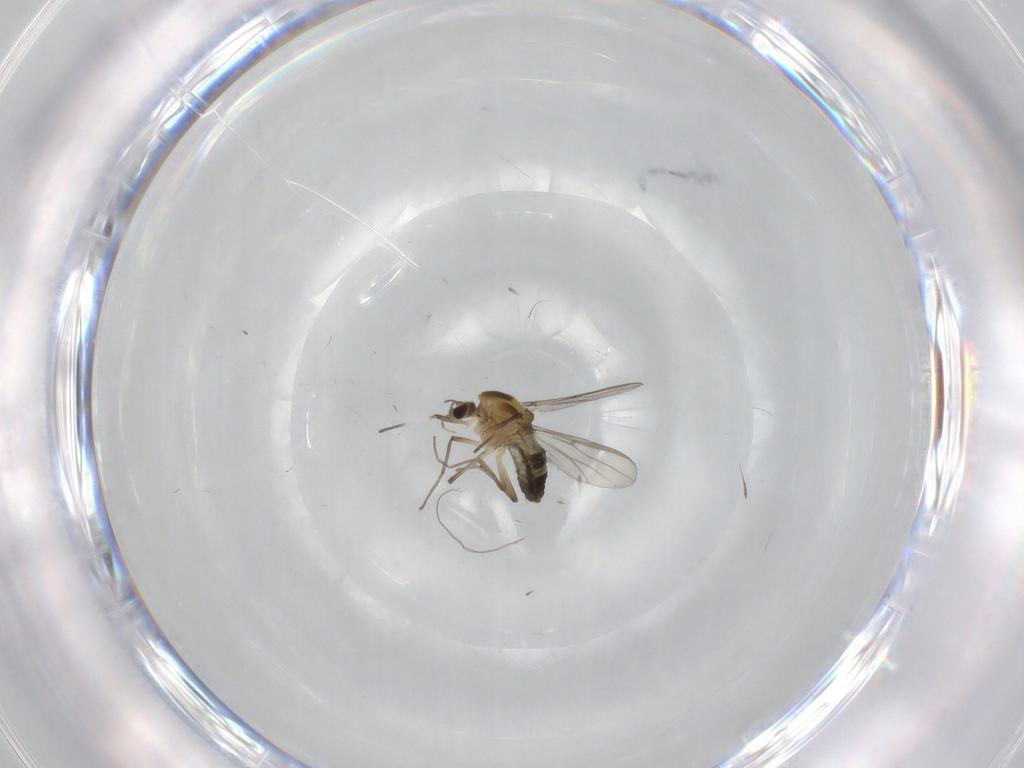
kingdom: Animalia
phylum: Arthropoda
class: Insecta
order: Diptera
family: Chironomidae
